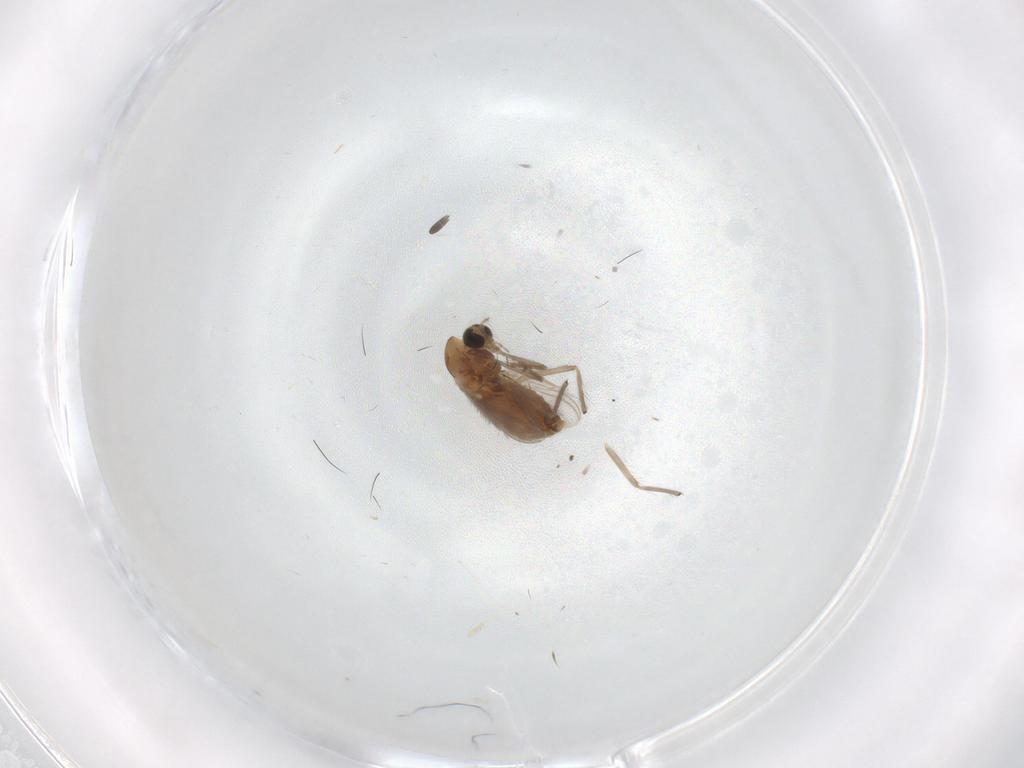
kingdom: Animalia
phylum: Arthropoda
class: Insecta
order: Diptera
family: Chironomidae
